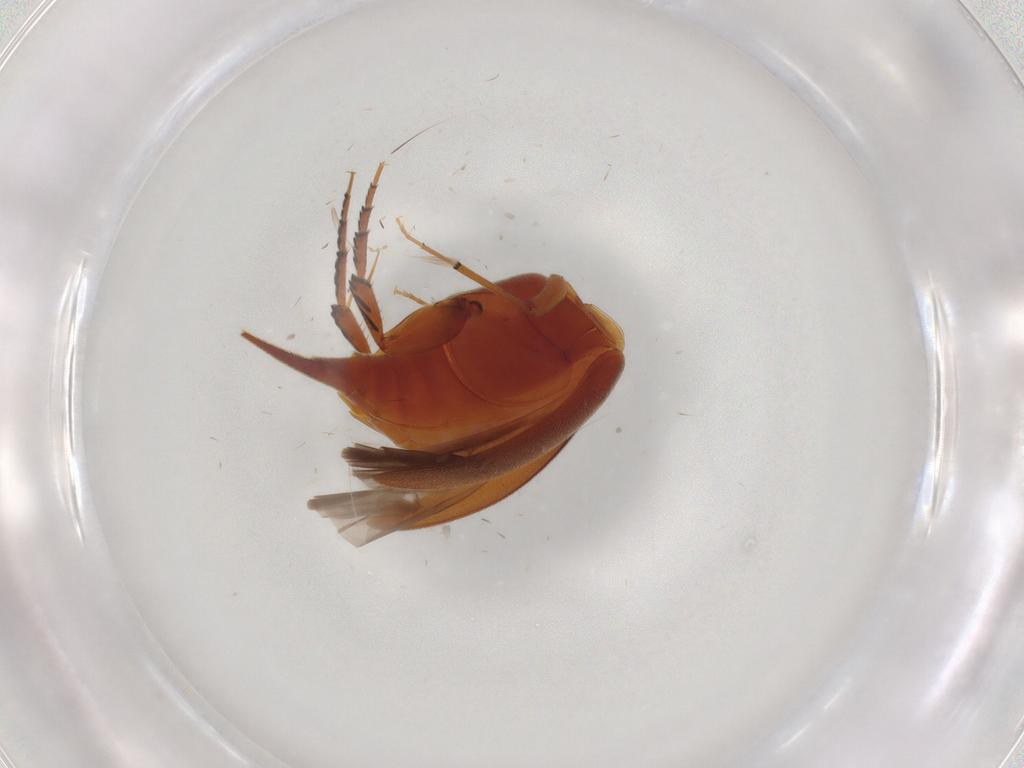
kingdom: Animalia
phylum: Arthropoda
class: Insecta
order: Coleoptera
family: Mordellidae
